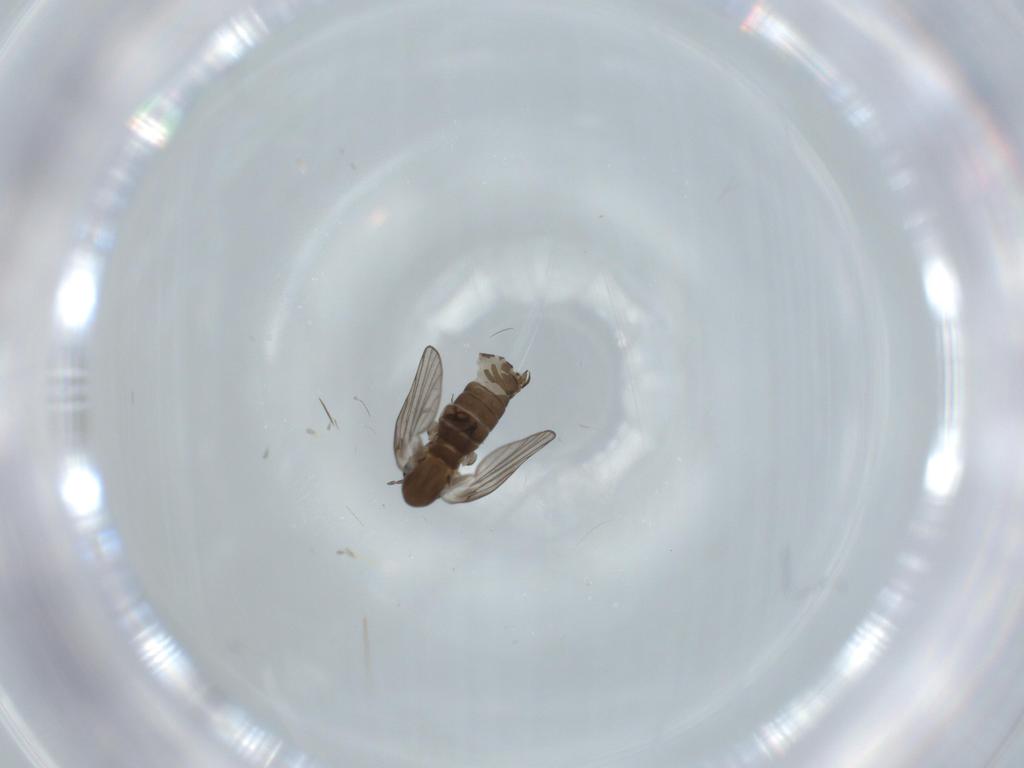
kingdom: Animalia
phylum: Arthropoda
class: Insecta
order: Diptera
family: Psychodidae
